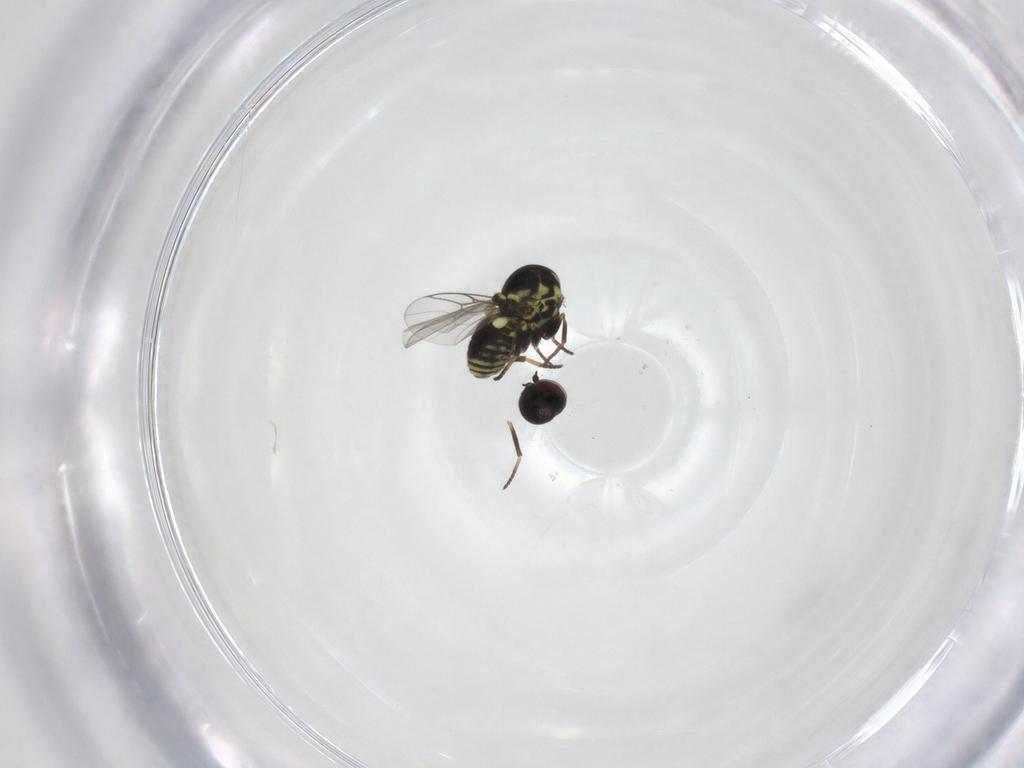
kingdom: Animalia
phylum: Arthropoda
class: Insecta
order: Diptera
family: Mythicomyiidae
